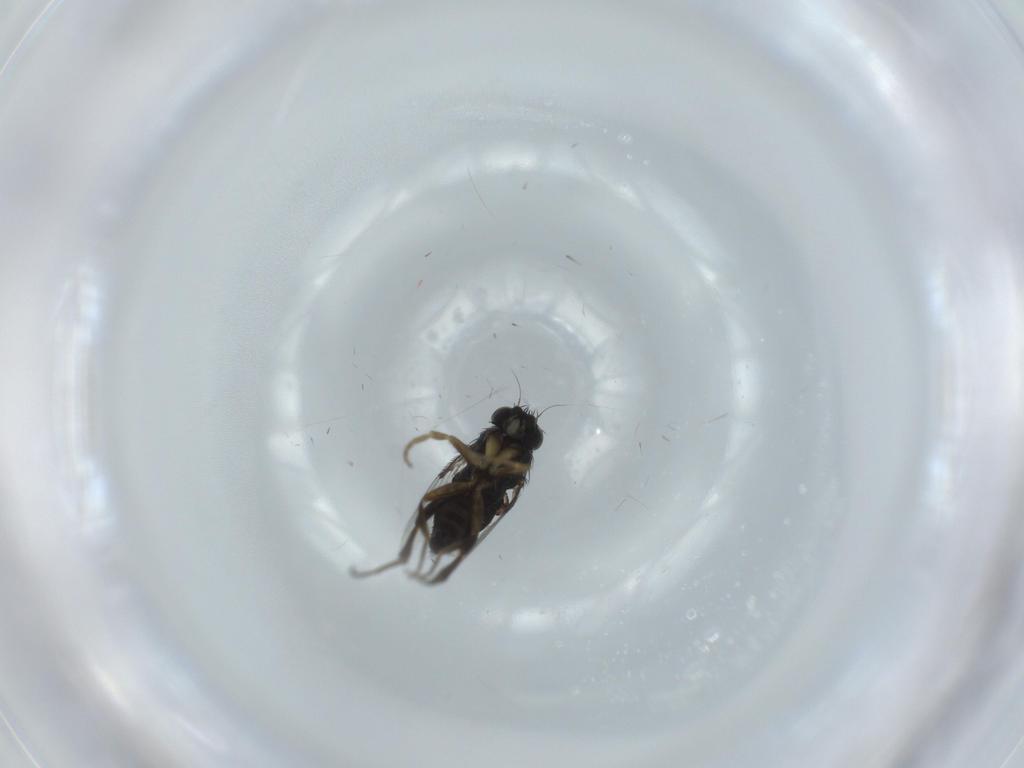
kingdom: Animalia
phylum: Arthropoda
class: Insecta
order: Diptera
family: Phoridae
